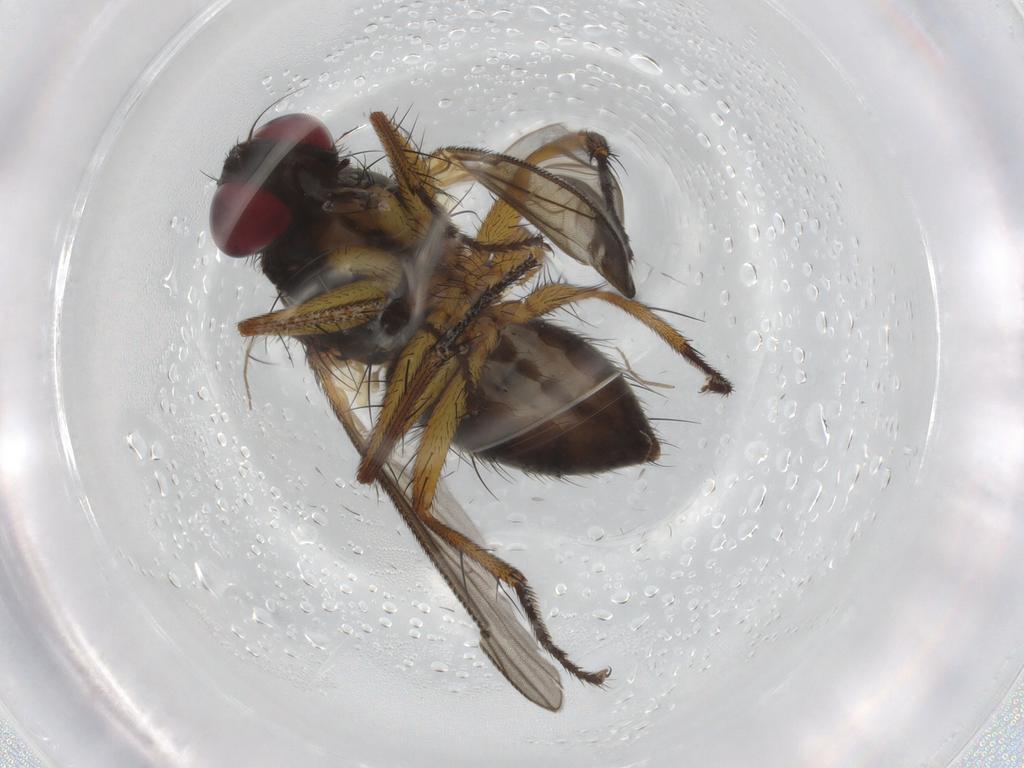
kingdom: Animalia
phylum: Arthropoda
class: Insecta
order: Diptera
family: Muscidae
